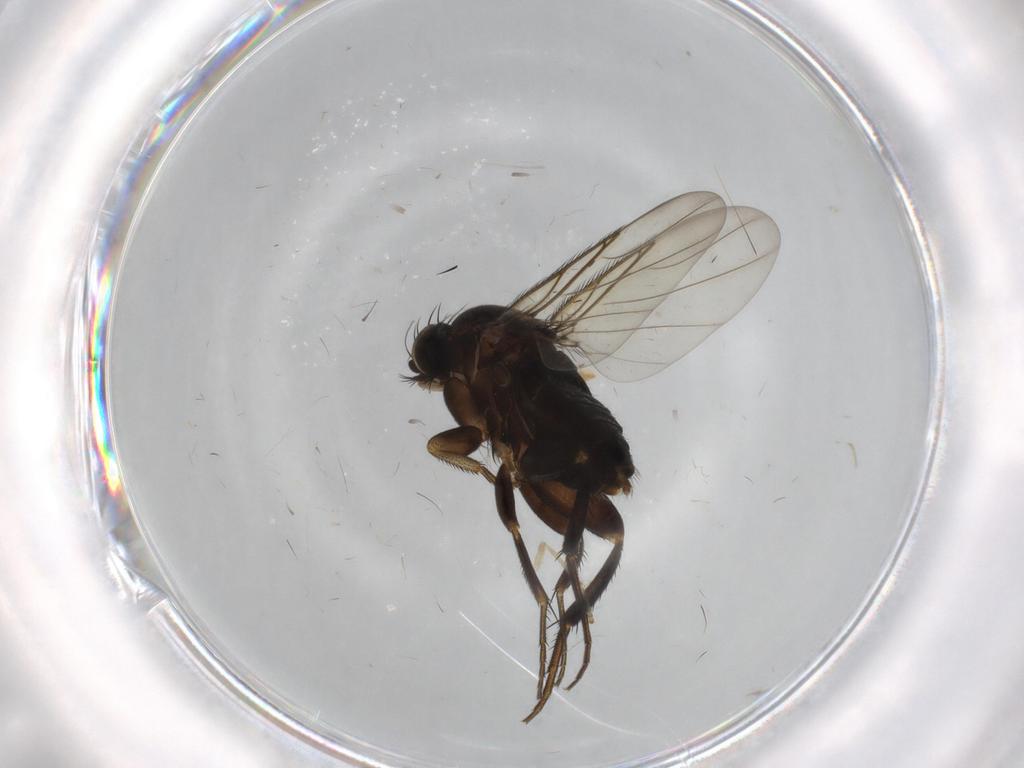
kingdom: Animalia
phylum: Arthropoda
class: Insecta
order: Diptera
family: Phoridae
